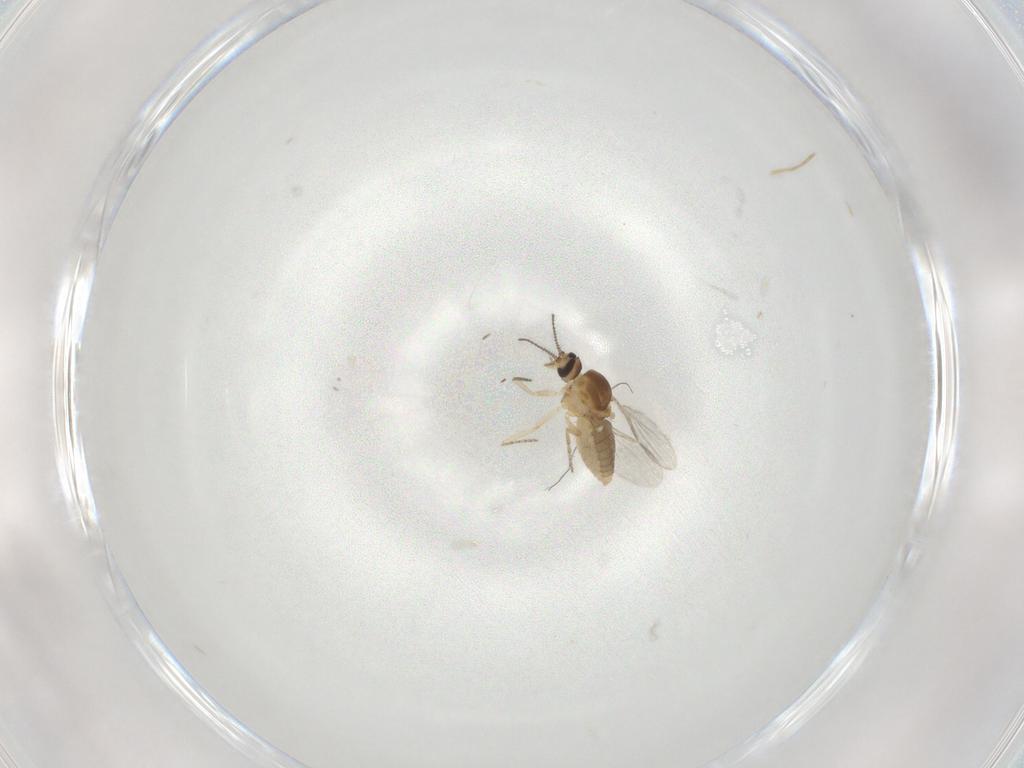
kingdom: Animalia
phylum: Arthropoda
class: Insecta
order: Diptera
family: Ceratopogonidae
